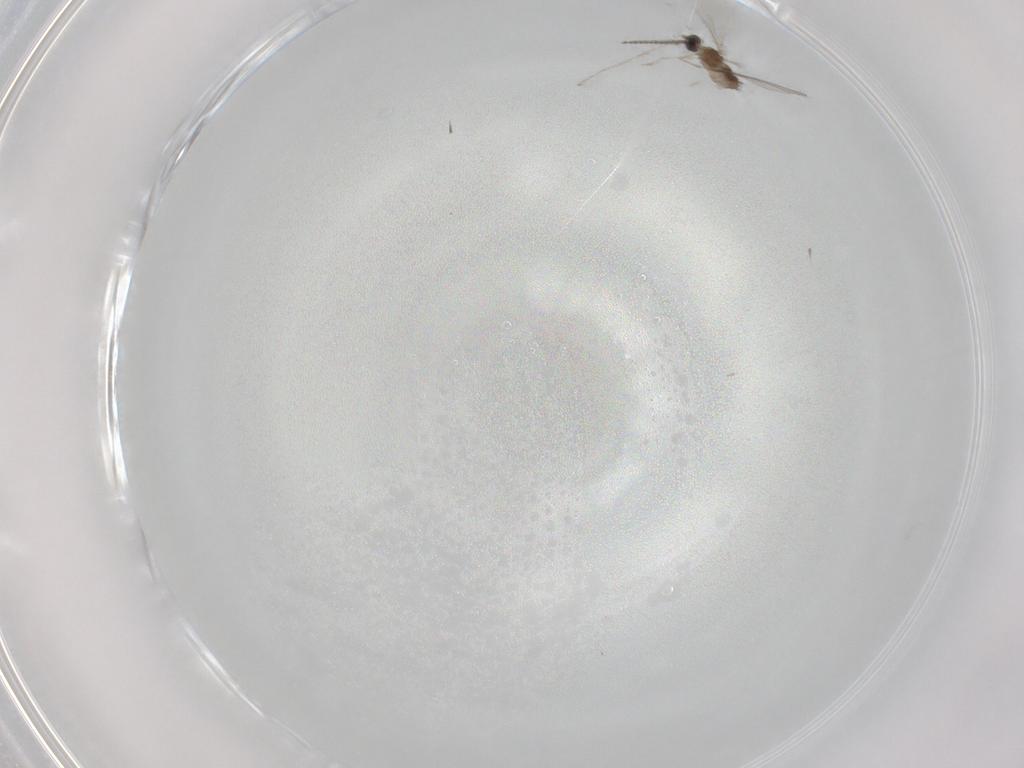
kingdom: Animalia
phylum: Arthropoda
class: Insecta
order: Diptera
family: Cecidomyiidae
